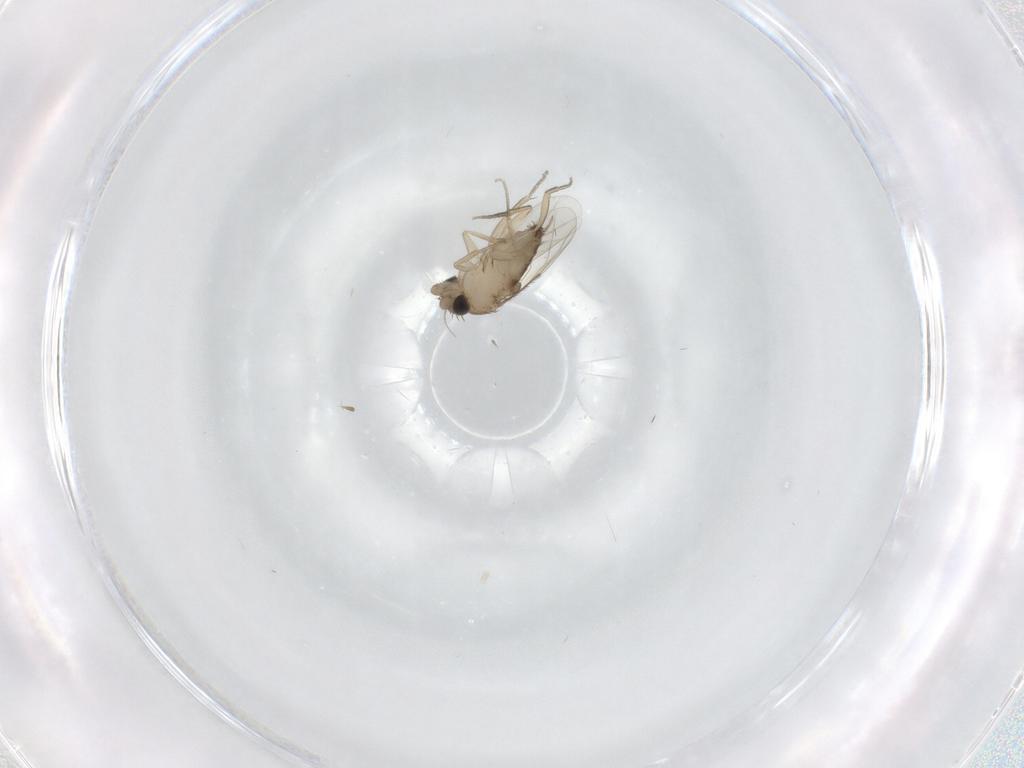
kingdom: Animalia
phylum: Arthropoda
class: Insecta
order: Diptera
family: Phoridae
